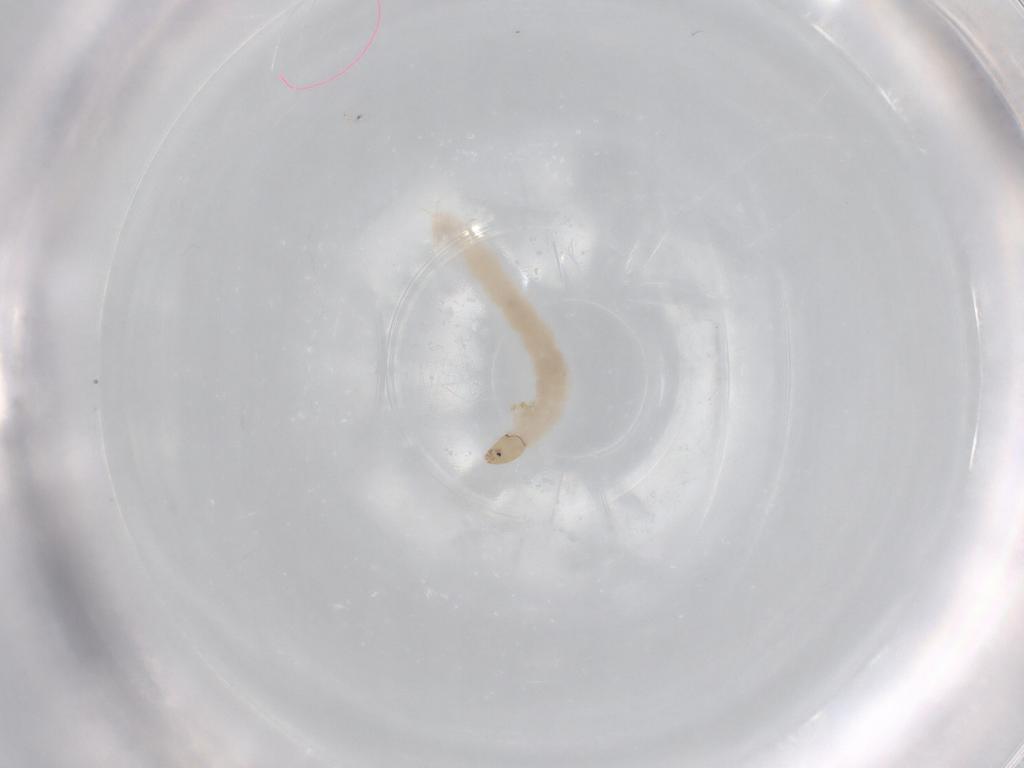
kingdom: Animalia
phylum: Arthropoda
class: Insecta
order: Diptera
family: Chironomidae
